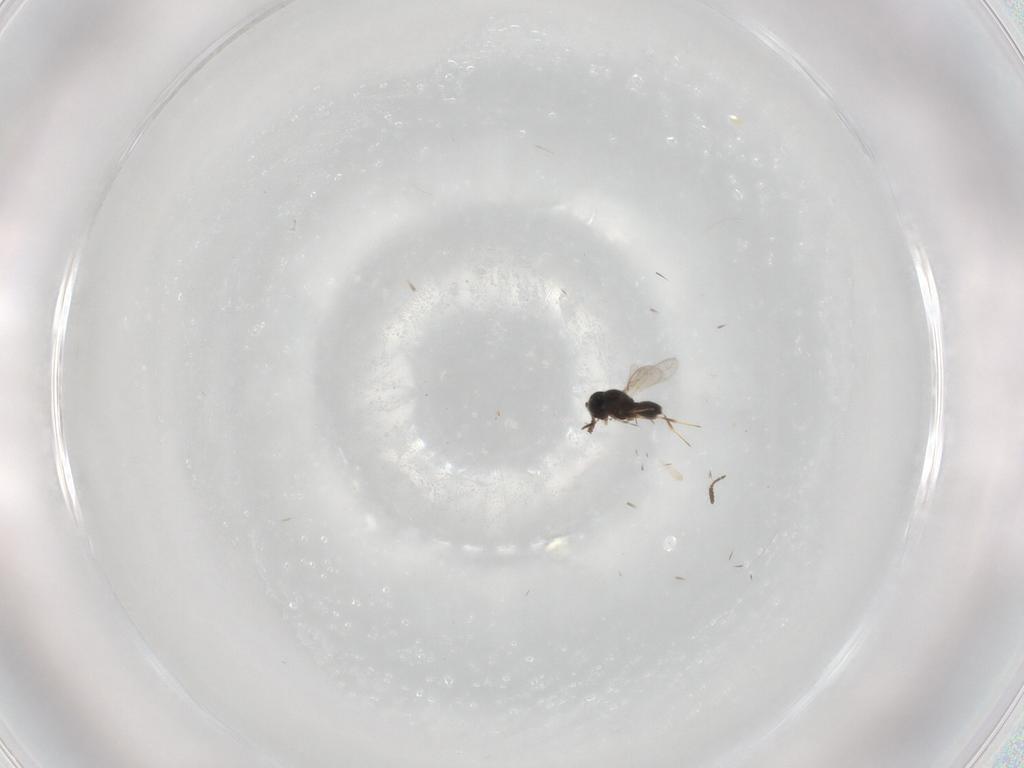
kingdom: Animalia
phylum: Arthropoda
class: Insecta
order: Hymenoptera
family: Scelionidae
